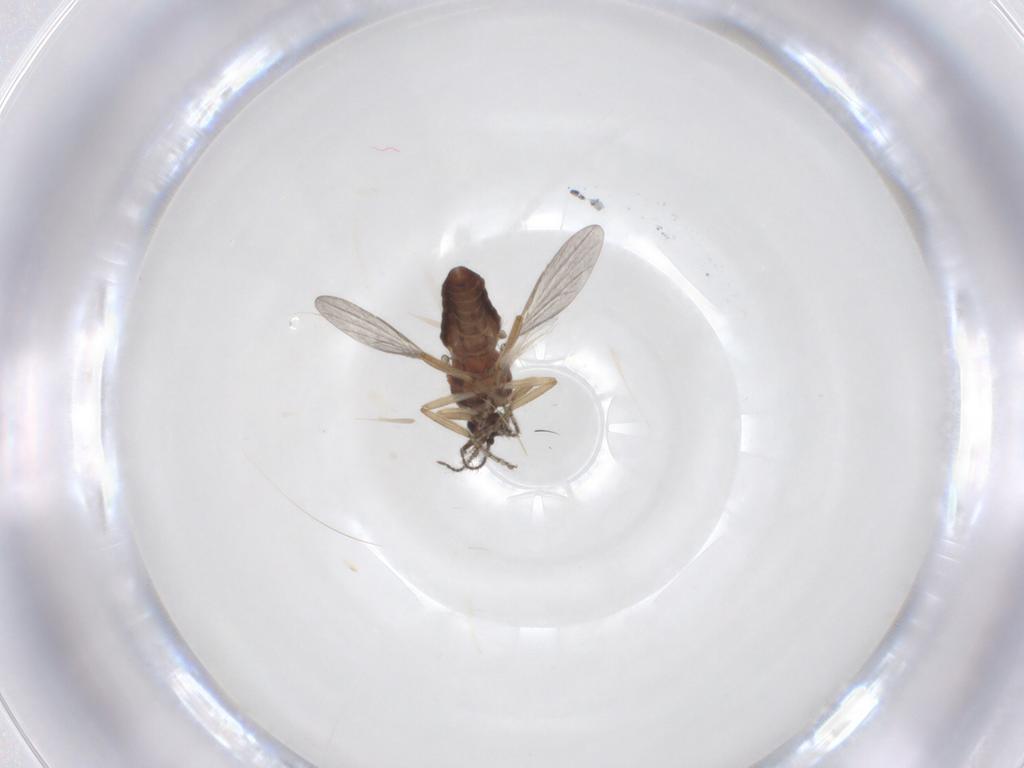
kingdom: Animalia
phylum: Arthropoda
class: Insecta
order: Diptera
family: Ceratopogonidae
